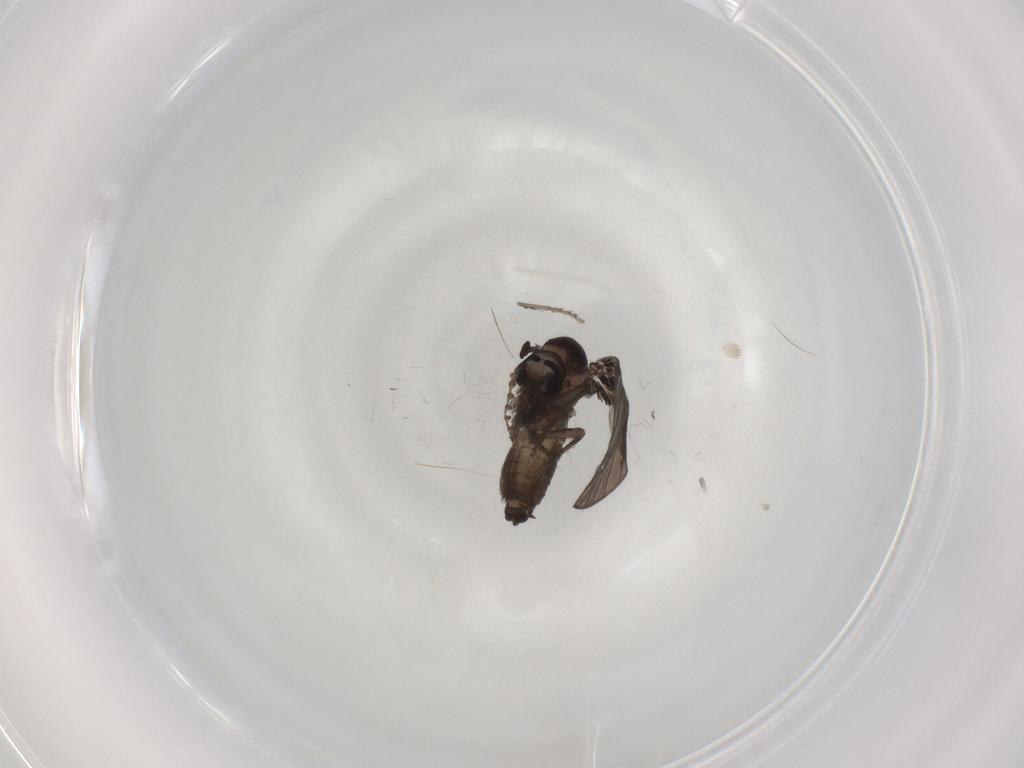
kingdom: Animalia
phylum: Arthropoda
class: Insecta
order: Diptera
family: Psychodidae
